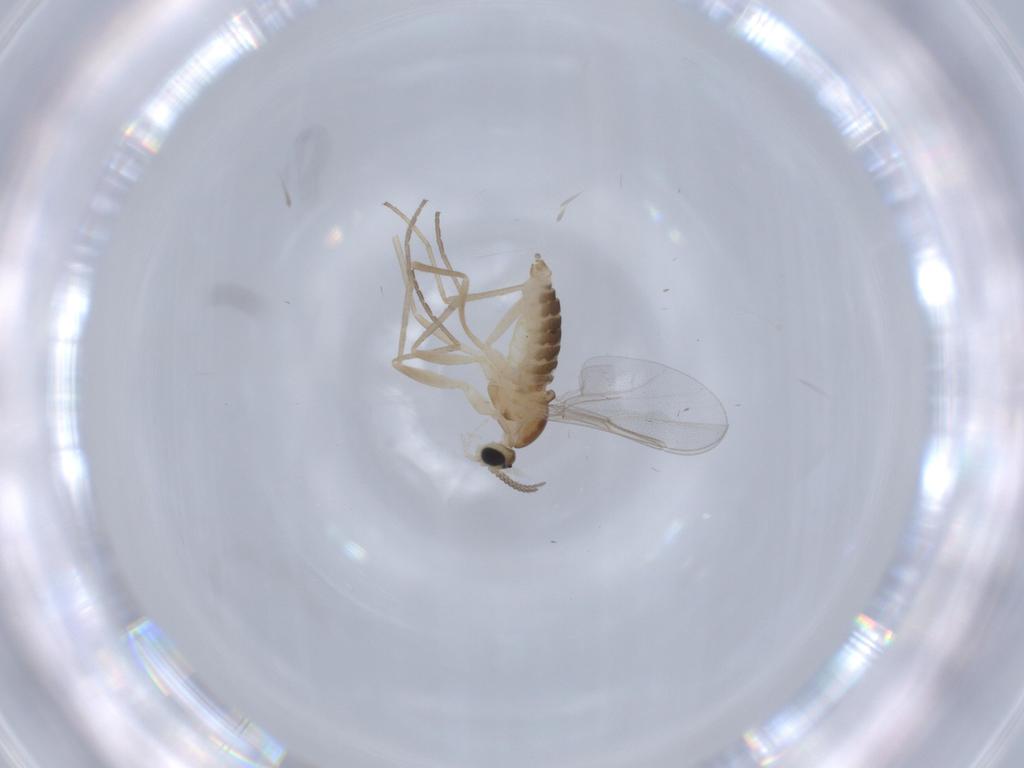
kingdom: Animalia
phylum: Arthropoda
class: Insecta
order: Diptera
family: Cecidomyiidae
